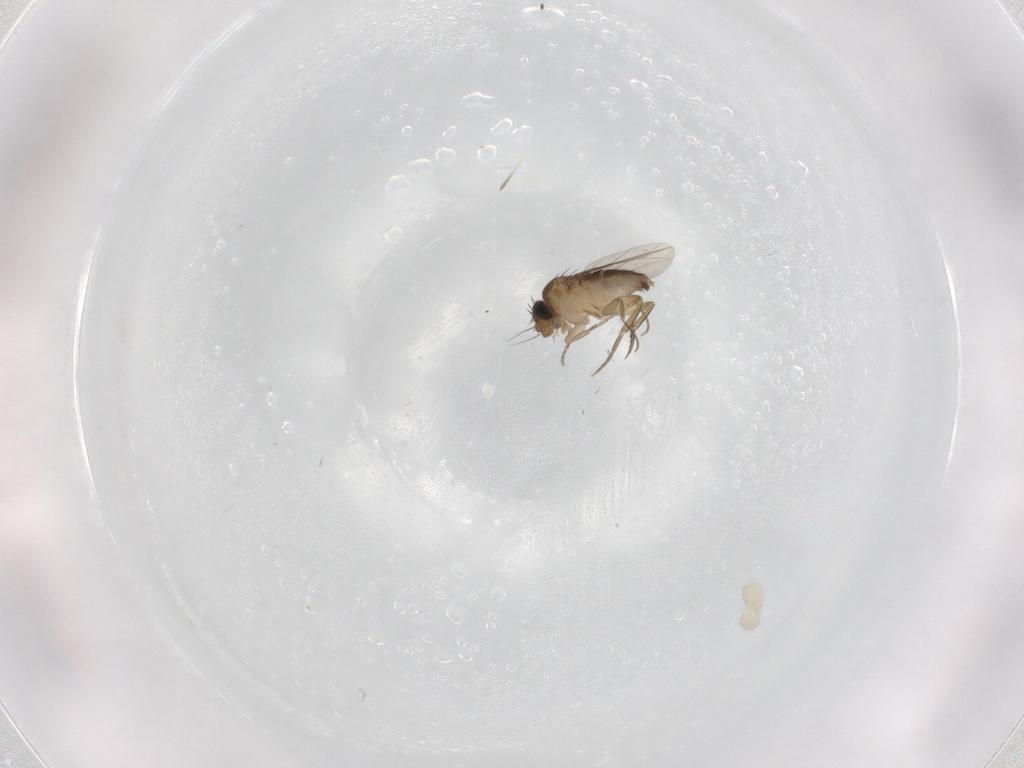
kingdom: Animalia
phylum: Arthropoda
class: Insecta
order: Diptera
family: Phoridae
